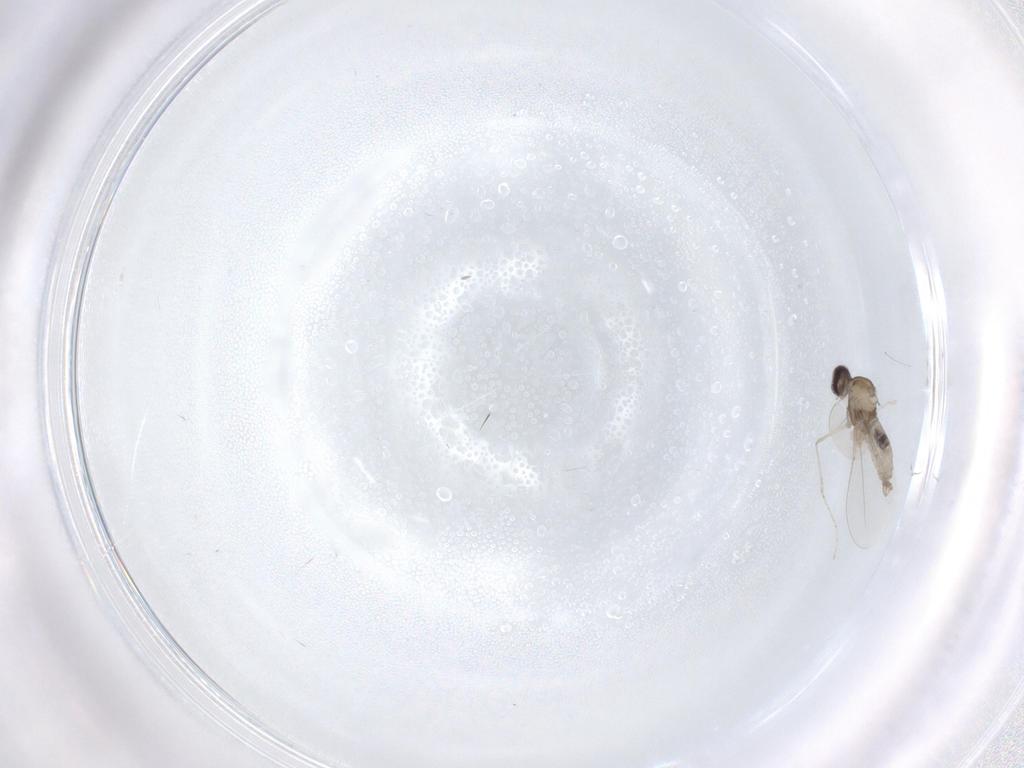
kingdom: Animalia
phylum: Arthropoda
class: Insecta
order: Diptera
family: Cecidomyiidae
